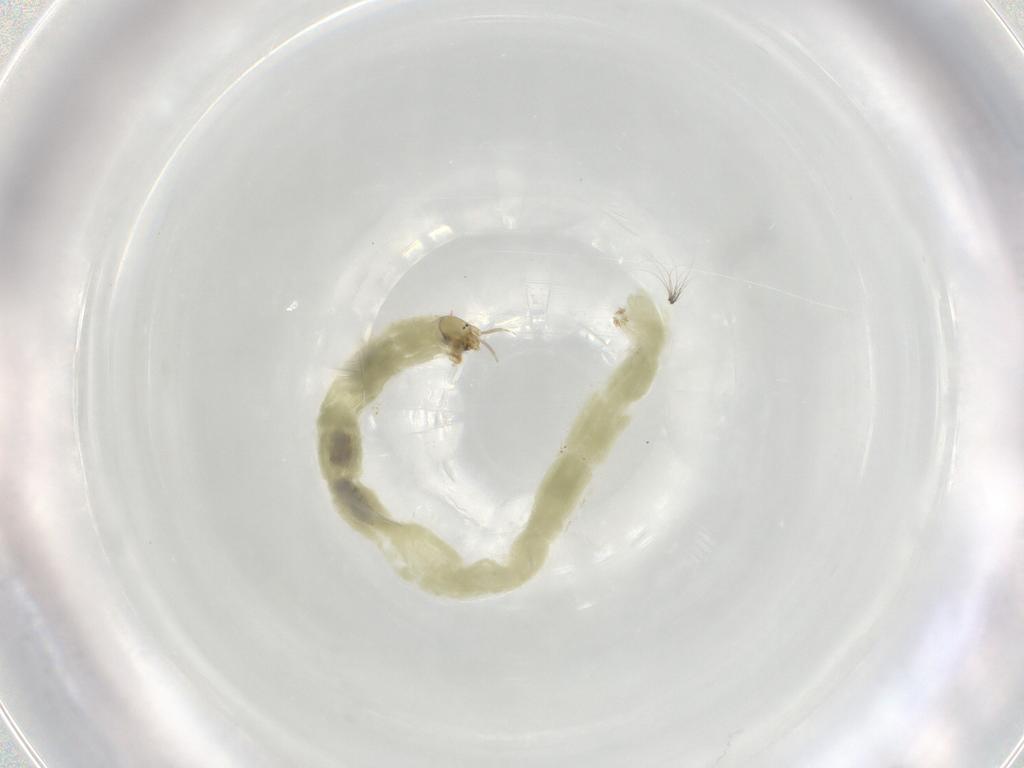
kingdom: Animalia
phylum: Arthropoda
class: Insecta
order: Diptera
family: Chironomidae
